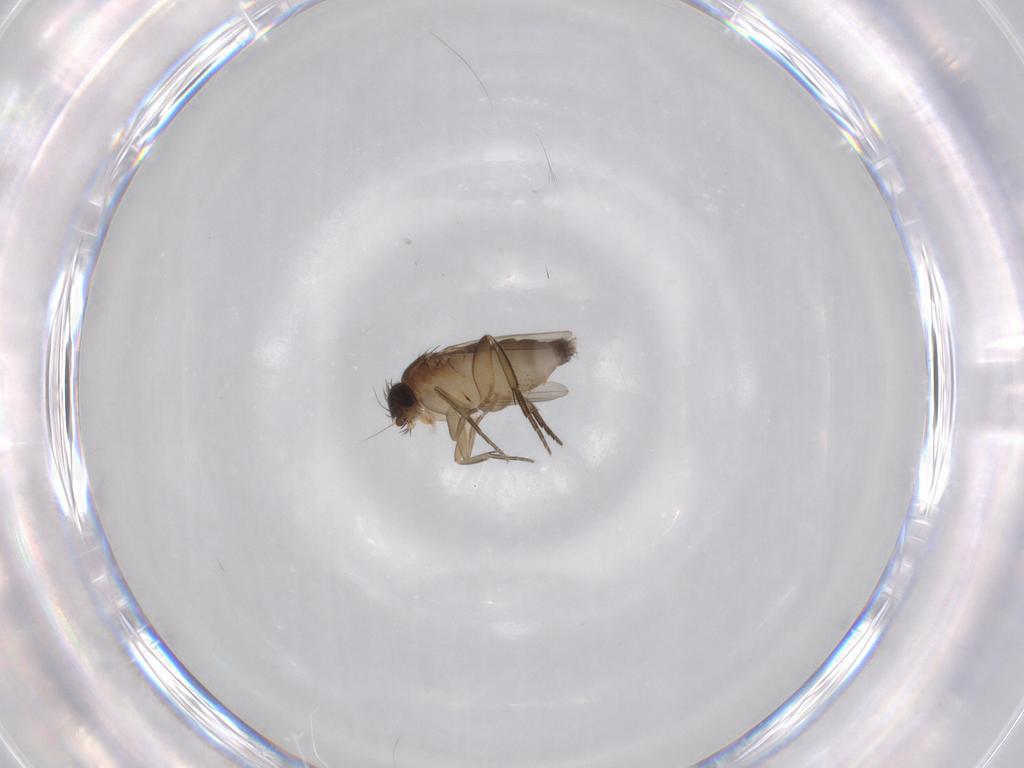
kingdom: Animalia
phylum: Arthropoda
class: Insecta
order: Diptera
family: Phoridae
